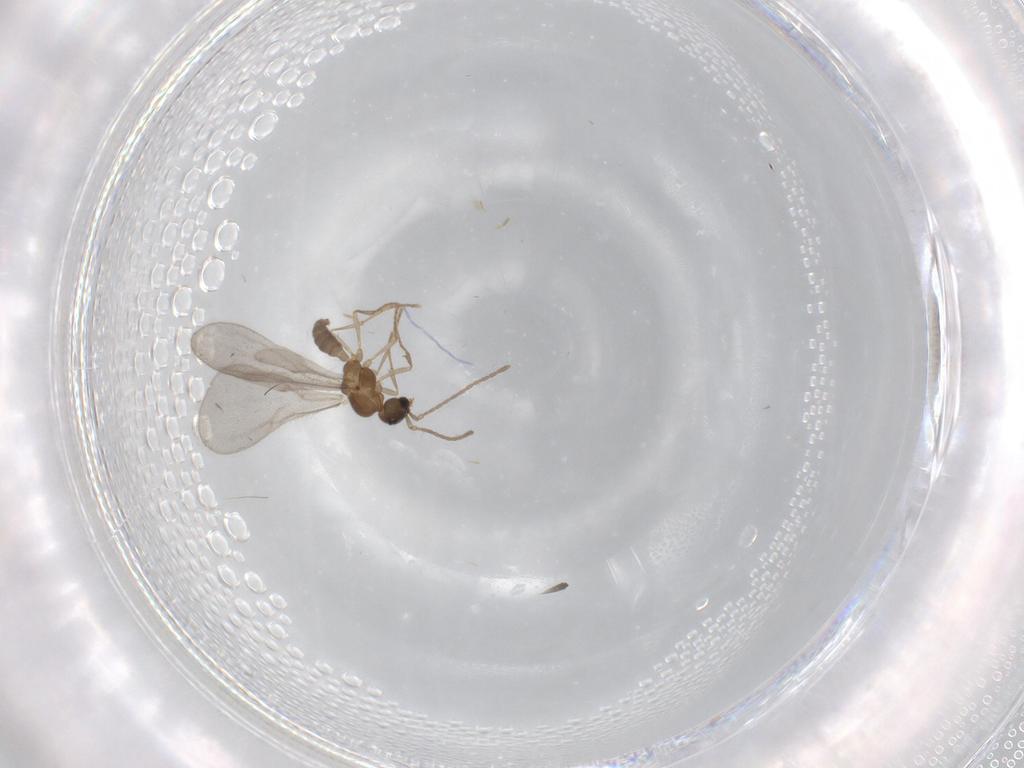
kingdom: Animalia
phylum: Arthropoda
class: Insecta
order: Hymenoptera
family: Formicidae
